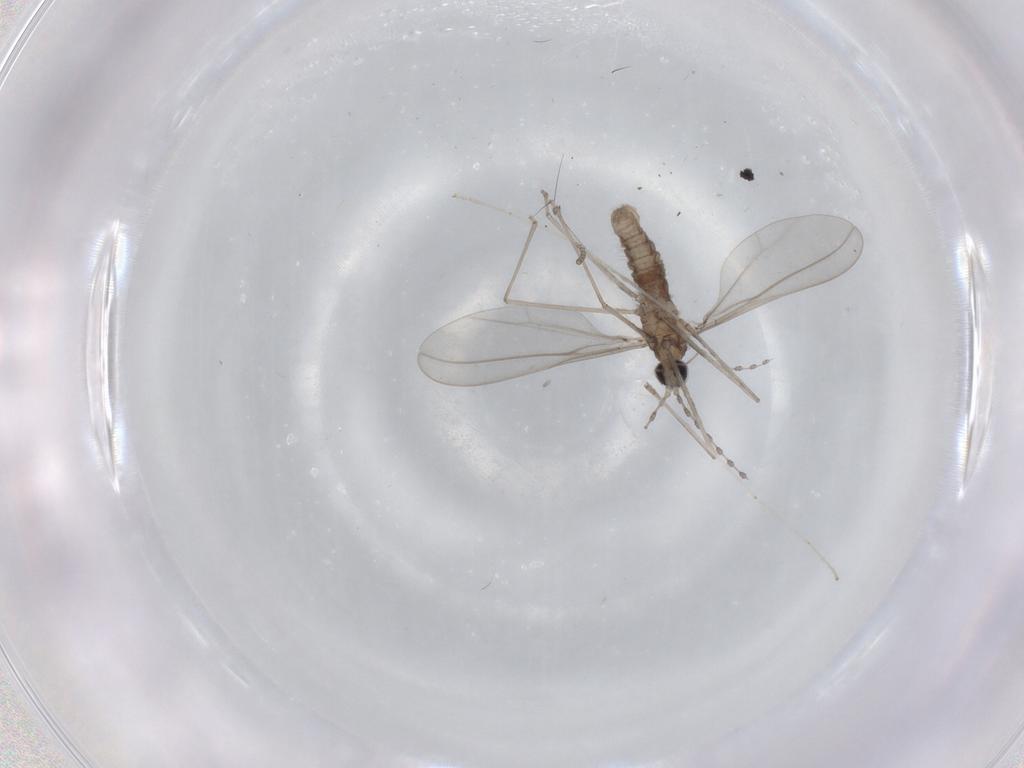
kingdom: Animalia
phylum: Arthropoda
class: Insecta
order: Diptera
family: Cecidomyiidae
